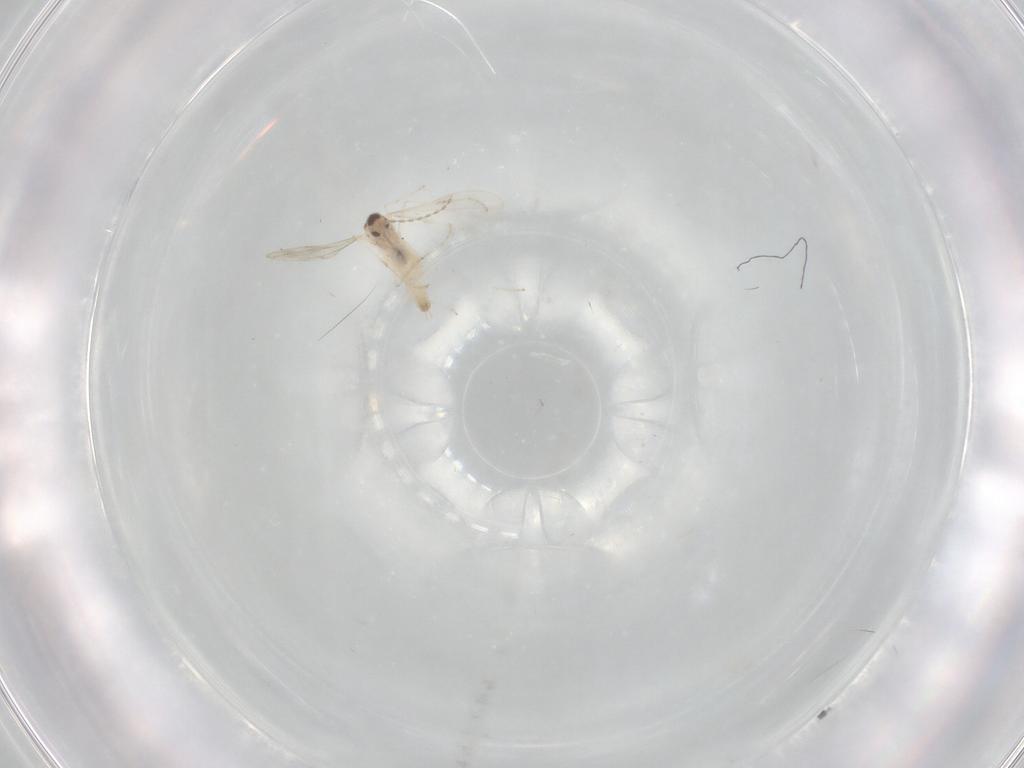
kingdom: Animalia
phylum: Arthropoda
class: Insecta
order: Diptera
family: Cecidomyiidae
